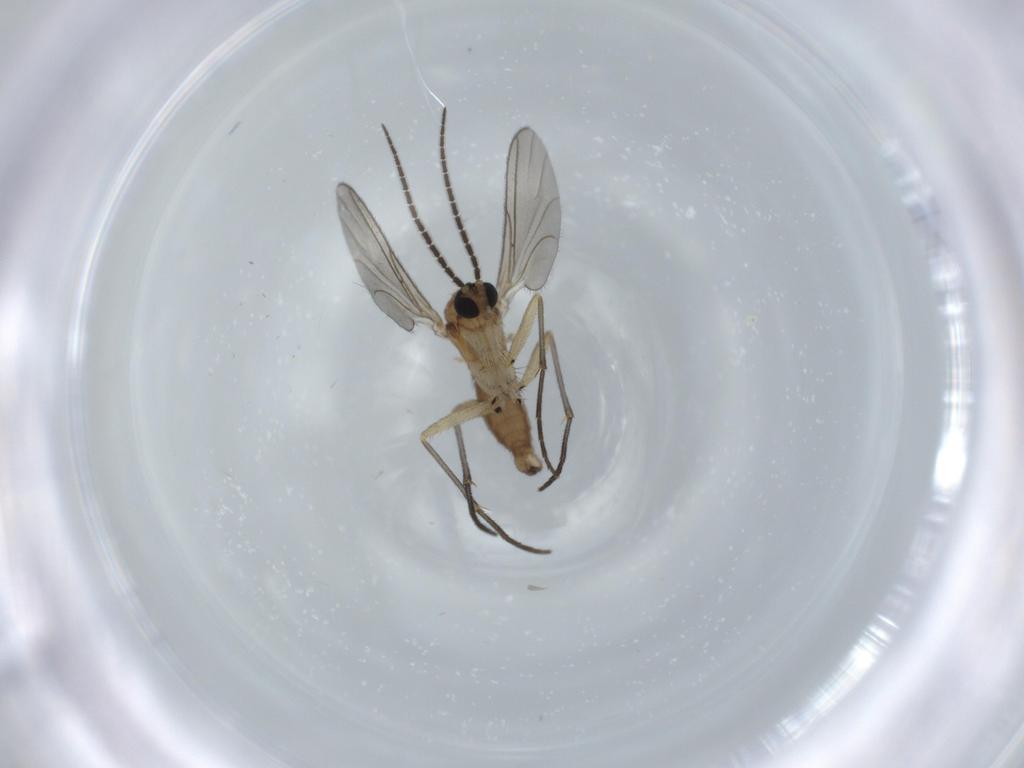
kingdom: Animalia
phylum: Arthropoda
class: Insecta
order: Diptera
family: Sciaridae
